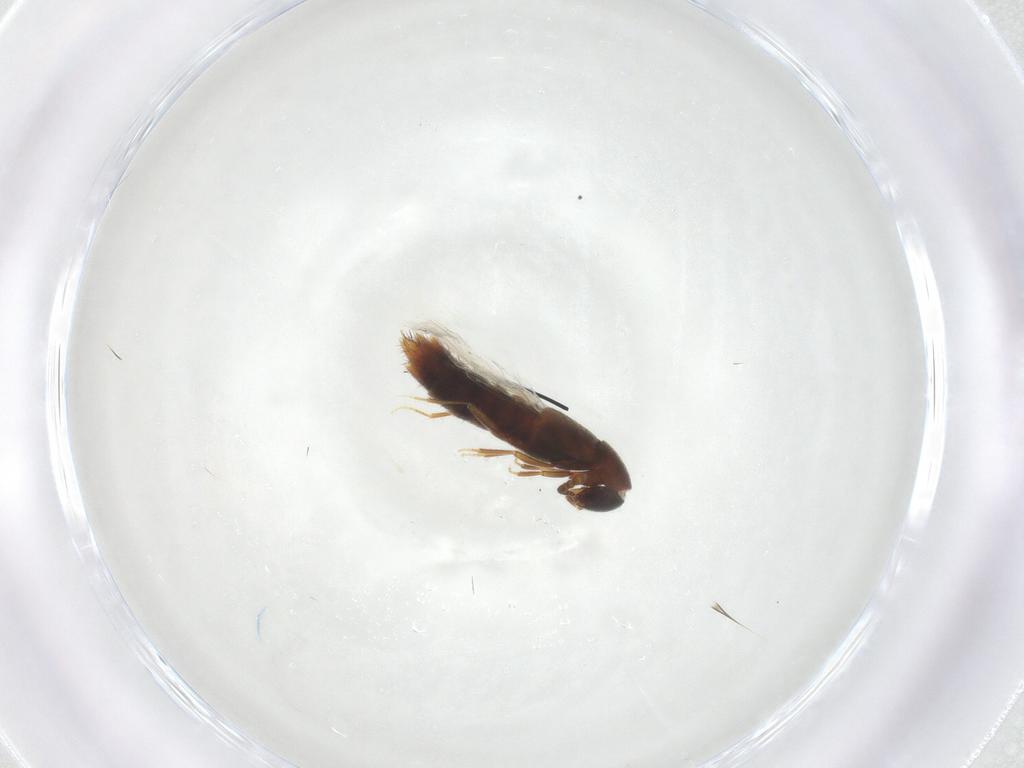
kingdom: Animalia
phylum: Arthropoda
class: Insecta
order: Coleoptera
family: Staphylinidae
